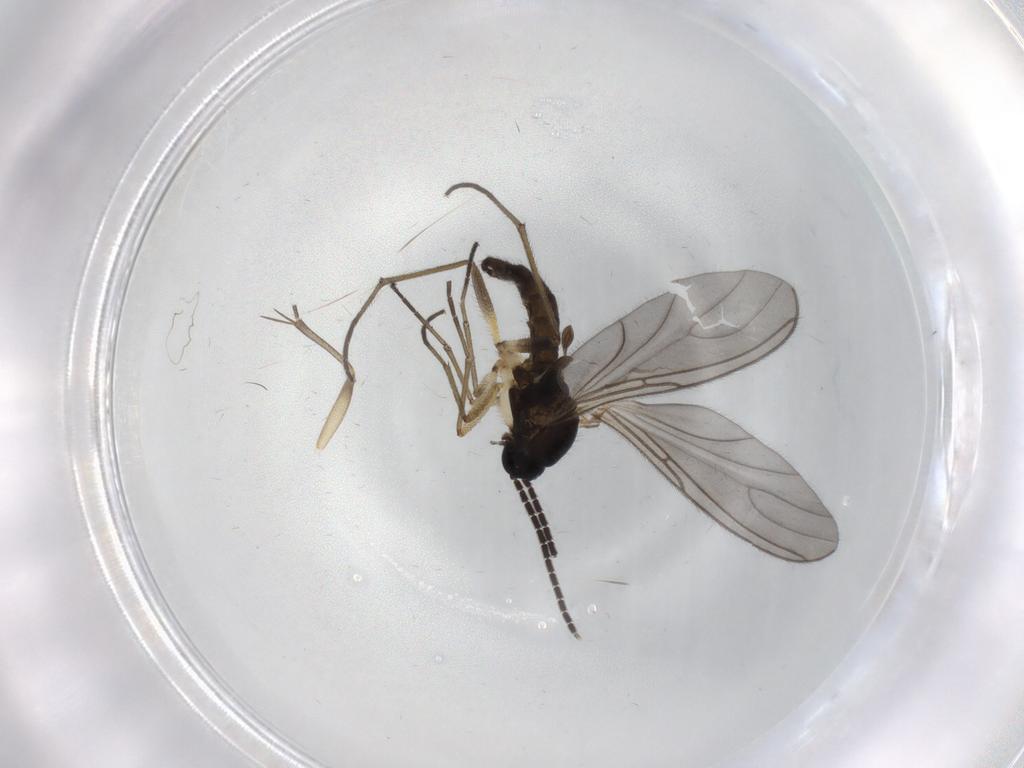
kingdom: Animalia
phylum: Arthropoda
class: Insecta
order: Diptera
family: Sciaridae
